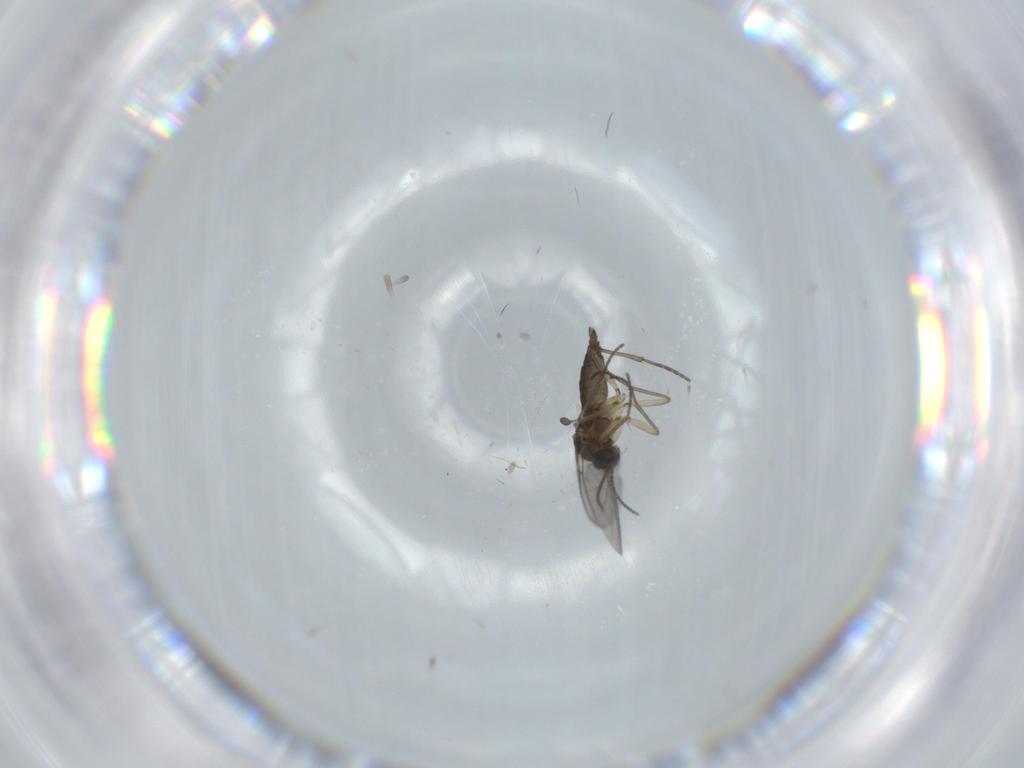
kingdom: Animalia
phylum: Arthropoda
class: Insecta
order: Diptera
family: Sciaridae
